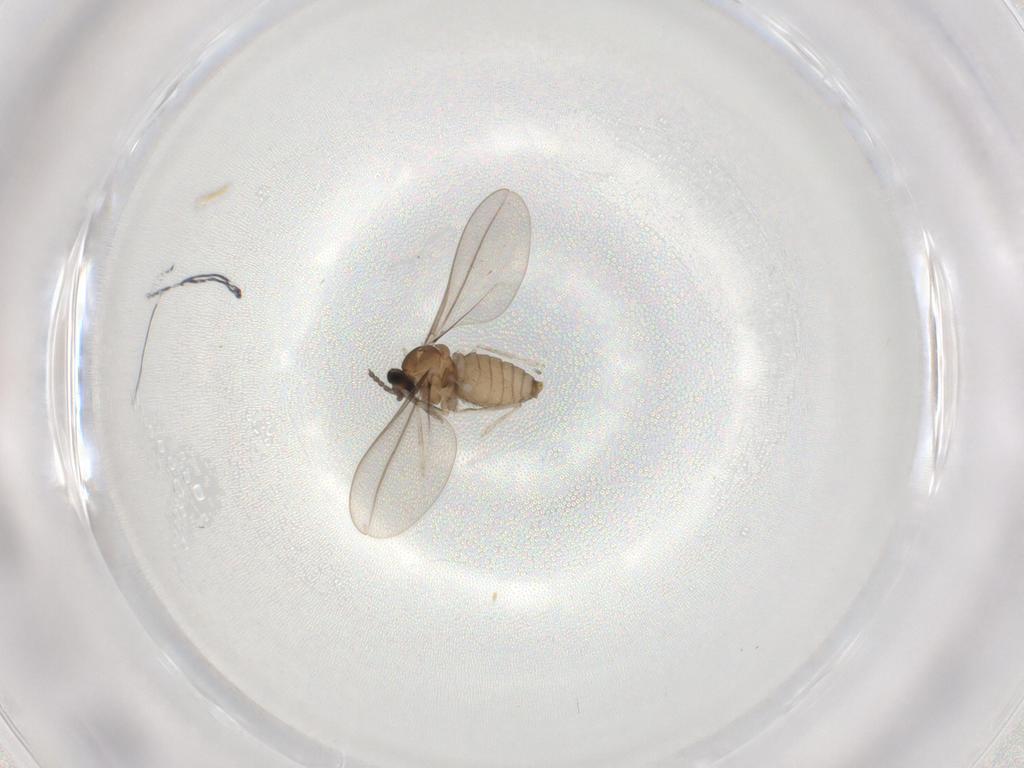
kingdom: Animalia
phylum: Arthropoda
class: Insecta
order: Diptera
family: Cecidomyiidae
